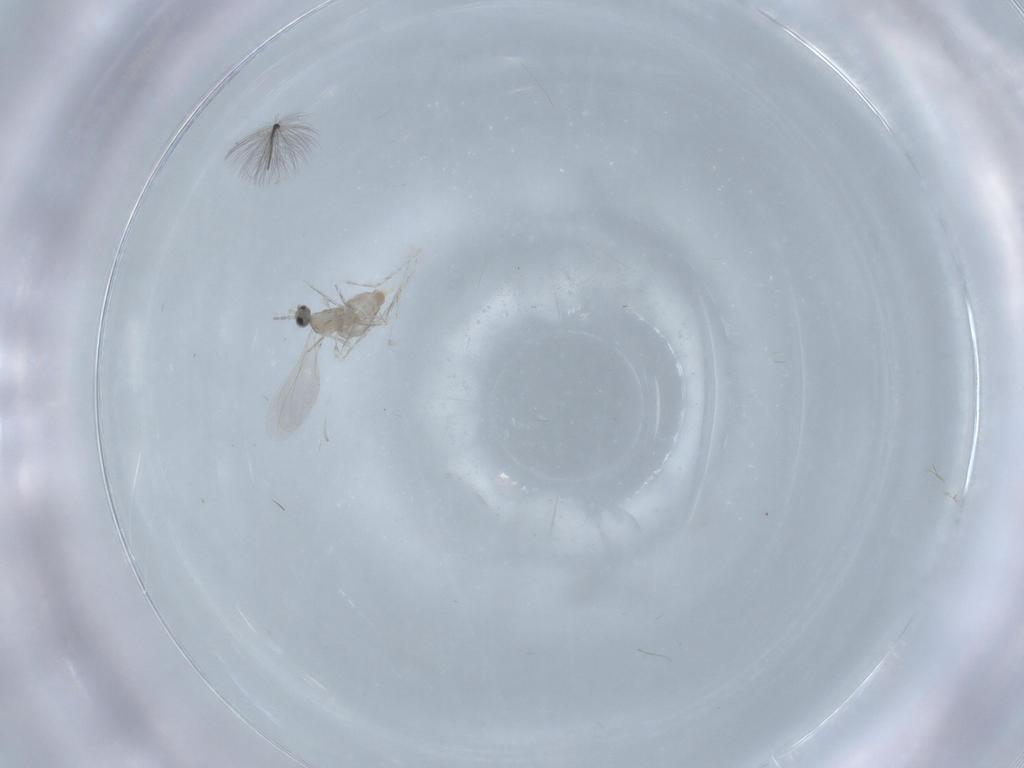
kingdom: Animalia
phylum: Arthropoda
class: Insecta
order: Diptera
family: Cecidomyiidae
